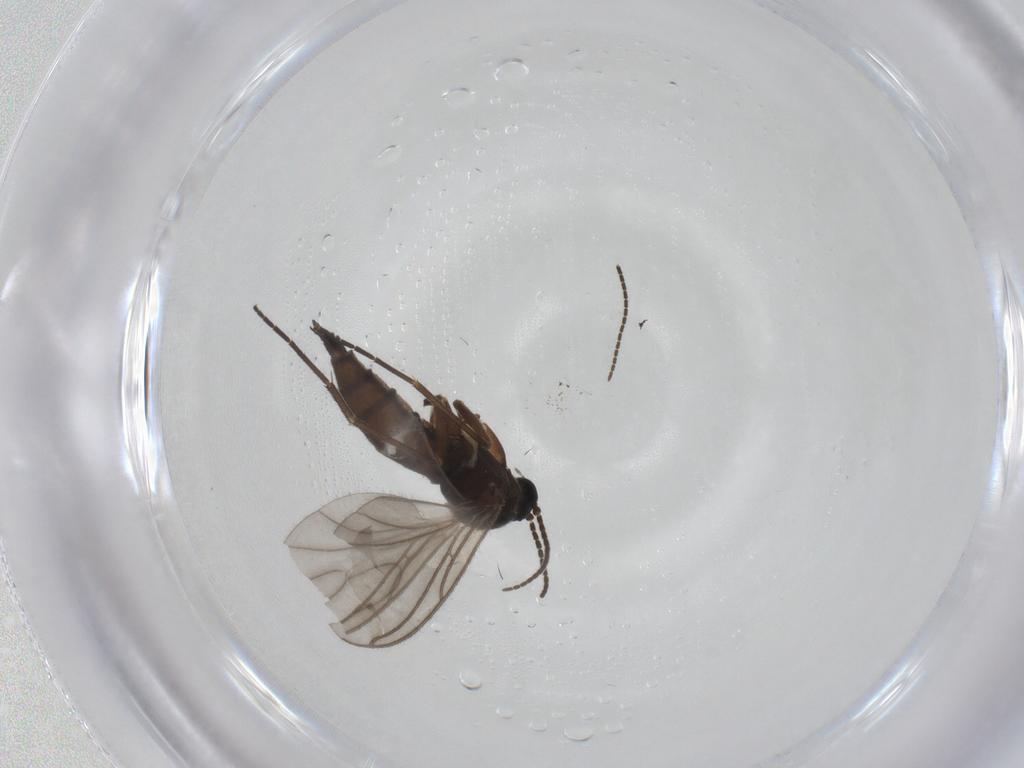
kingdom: Animalia
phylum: Arthropoda
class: Insecta
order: Diptera
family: Sciaridae
